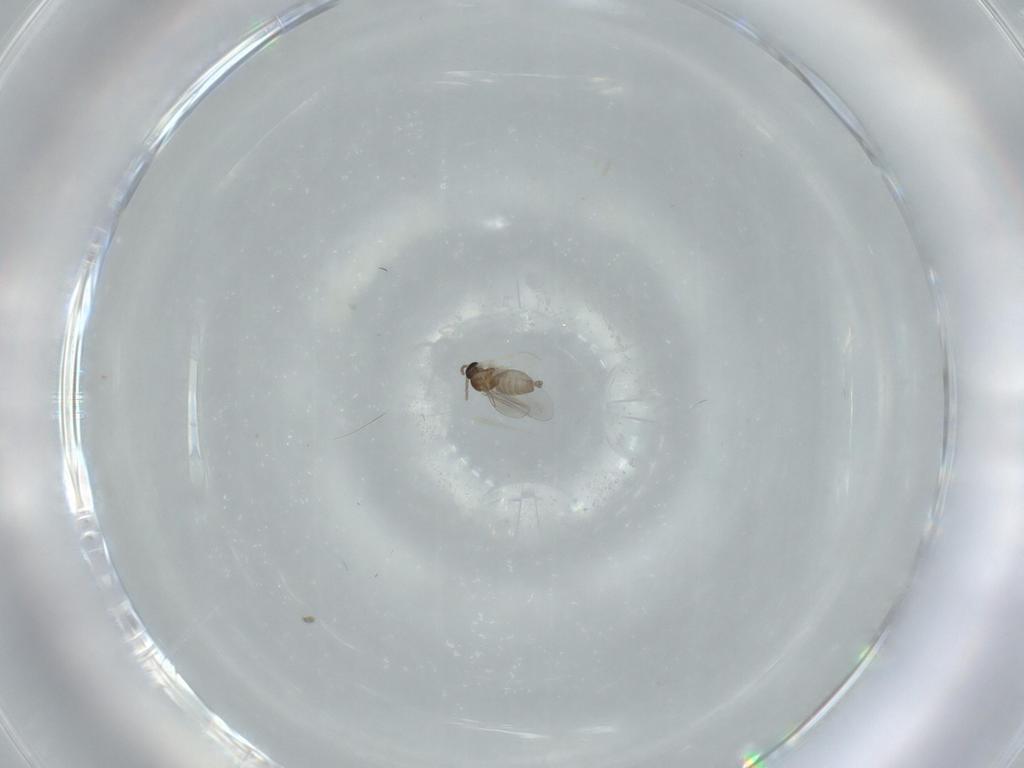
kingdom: Animalia
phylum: Arthropoda
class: Insecta
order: Diptera
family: Cecidomyiidae
